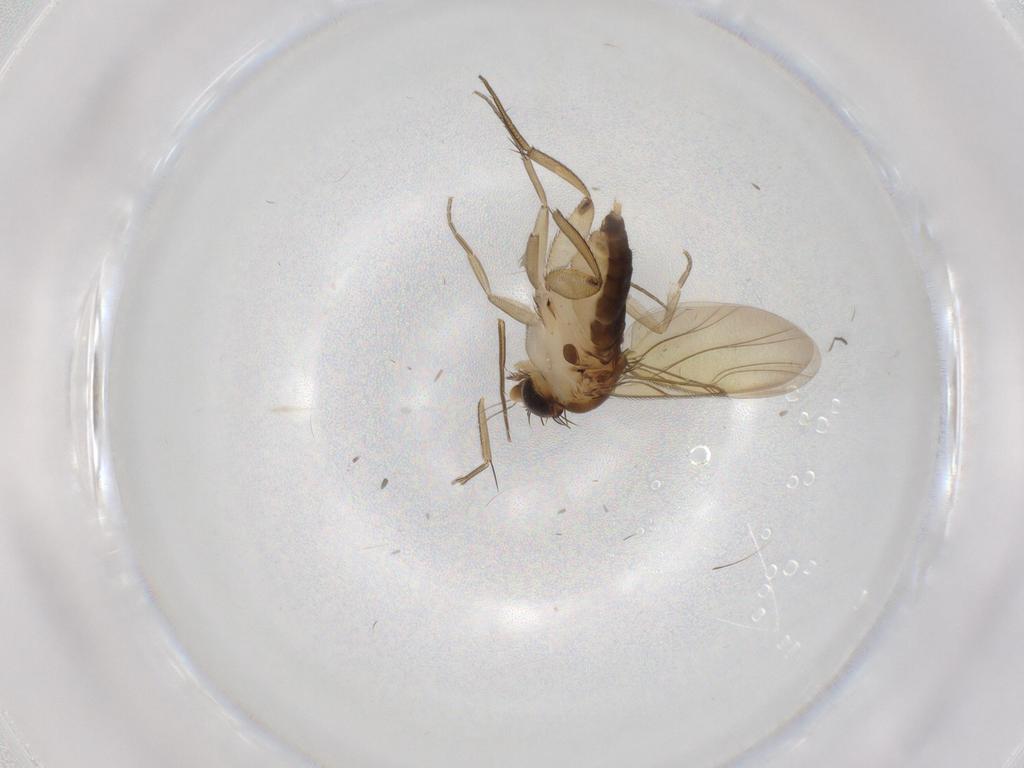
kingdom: Animalia
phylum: Arthropoda
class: Insecta
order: Diptera
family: Phoridae
